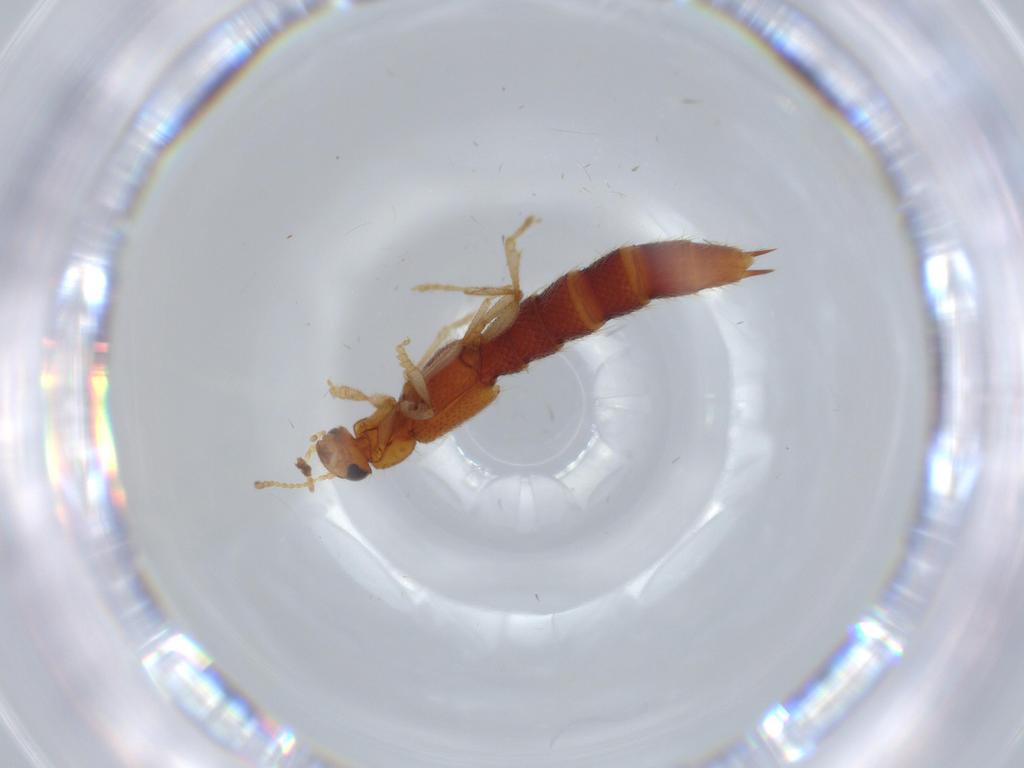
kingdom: Animalia
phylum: Arthropoda
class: Insecta
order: Coleoptera
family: Staphylinidae
